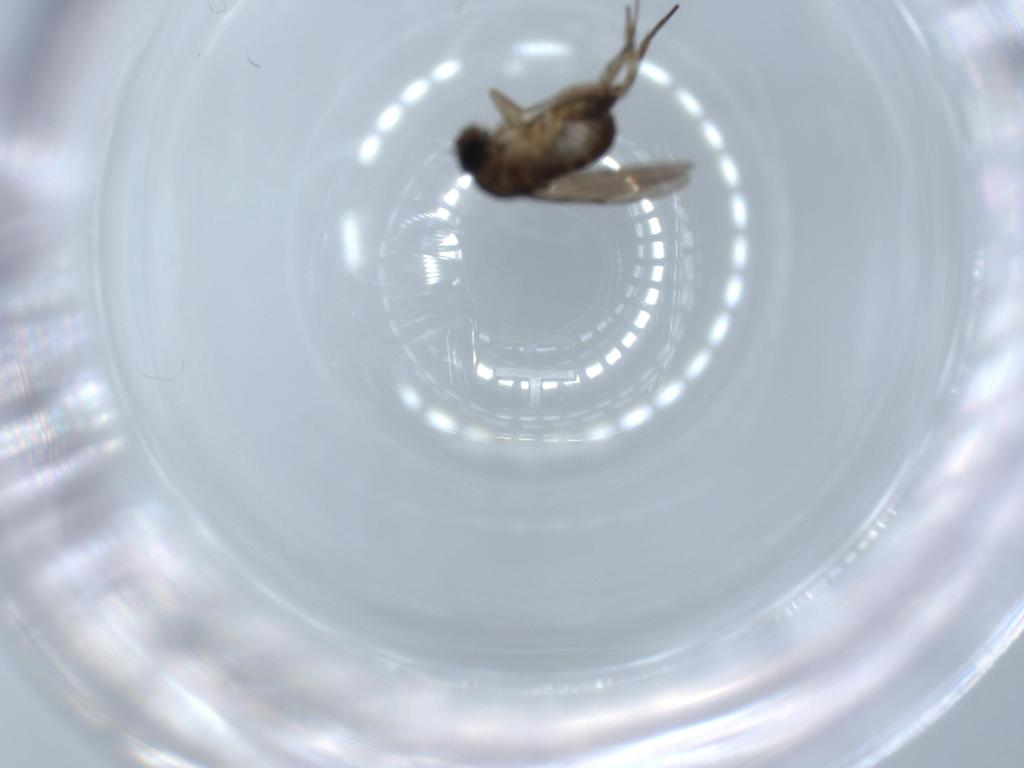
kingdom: Animalia
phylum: Arthropoda
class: Insecta
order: Diptera
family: Phoridae
